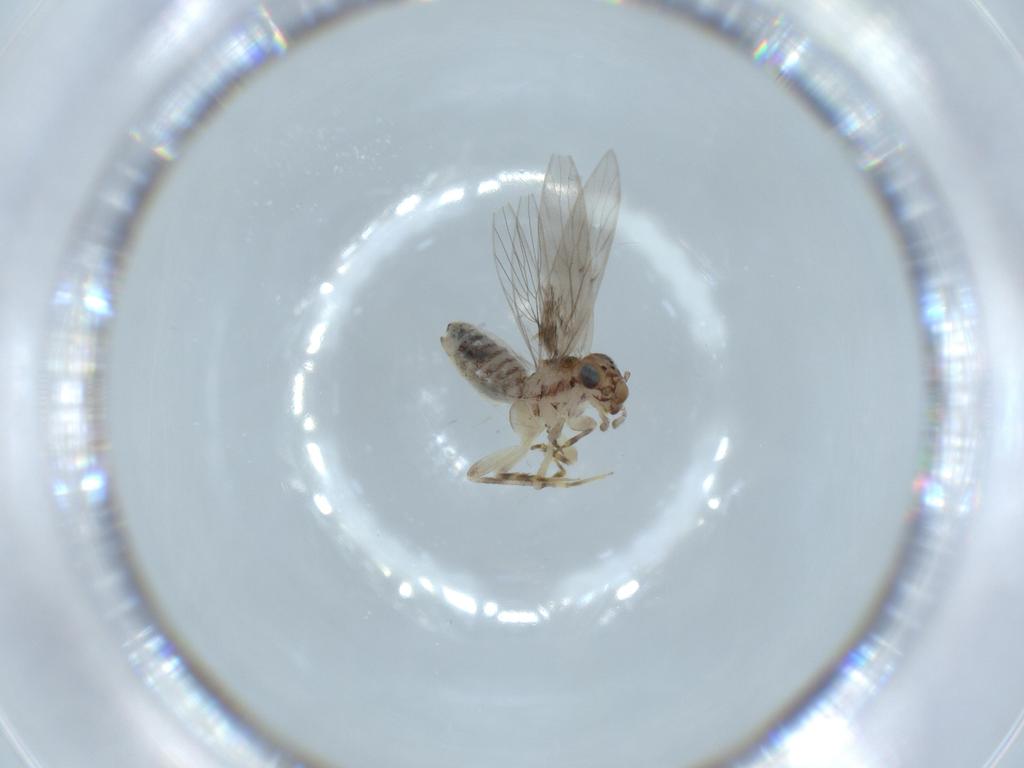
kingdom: Animalia
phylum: Arthropoda
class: Insecta
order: Psocodea
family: Lepidopsocidae
